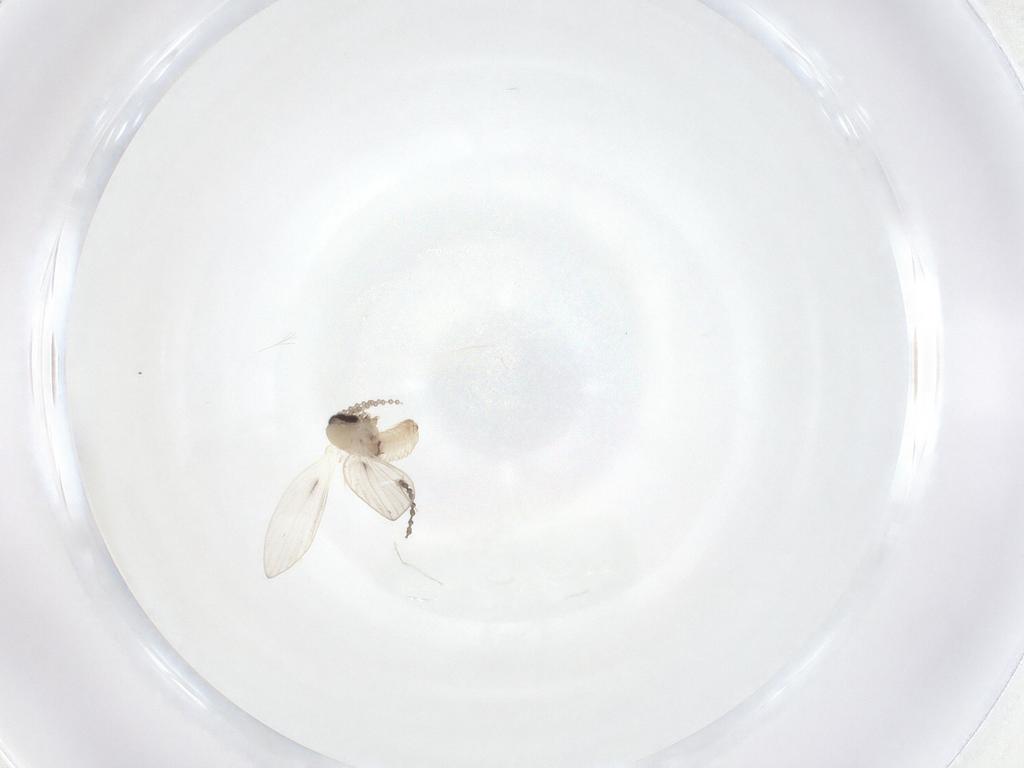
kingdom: Animalia
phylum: Arthropoda
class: Insecta
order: Diptera
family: Psychodidae
